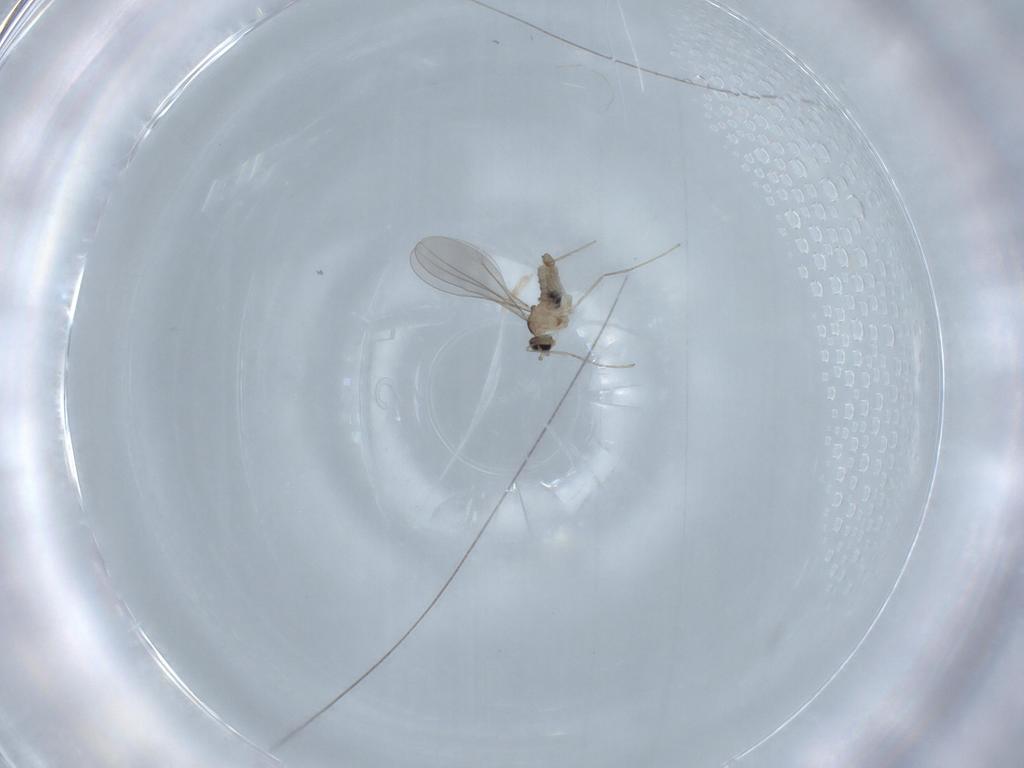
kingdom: Animalia
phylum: Arthropoda
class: Insecta
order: Diptera
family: Cecidomyiidae
